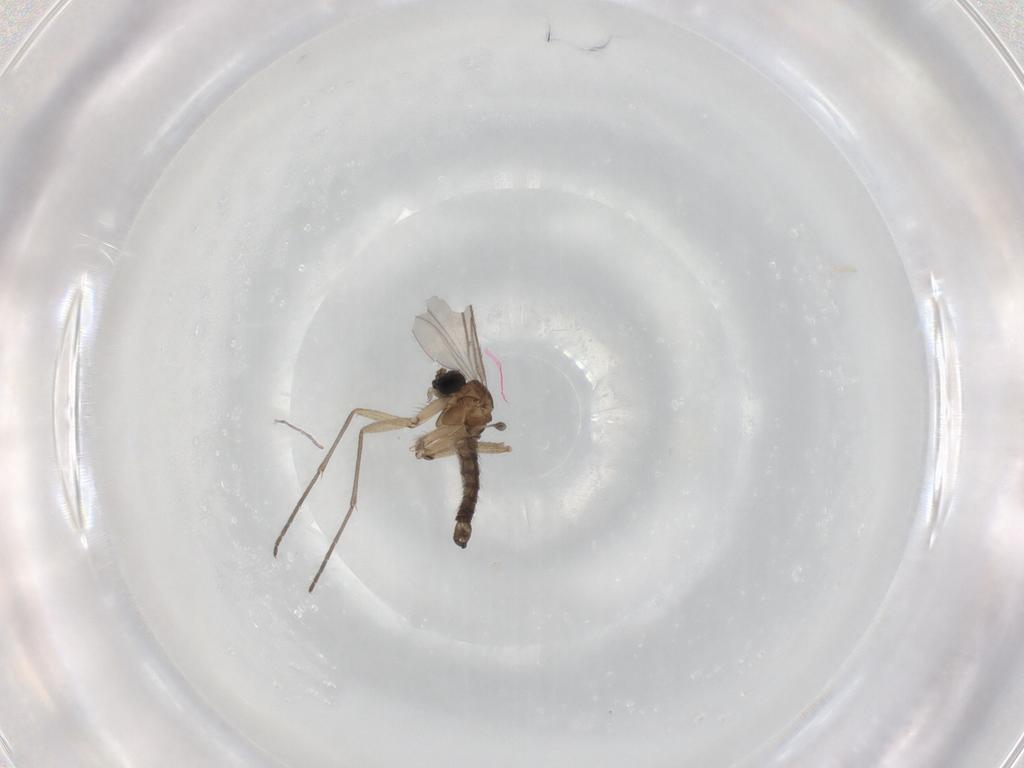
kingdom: Animalia
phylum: Arthropoda
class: Insecta
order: Diptera
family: Sciaridae
